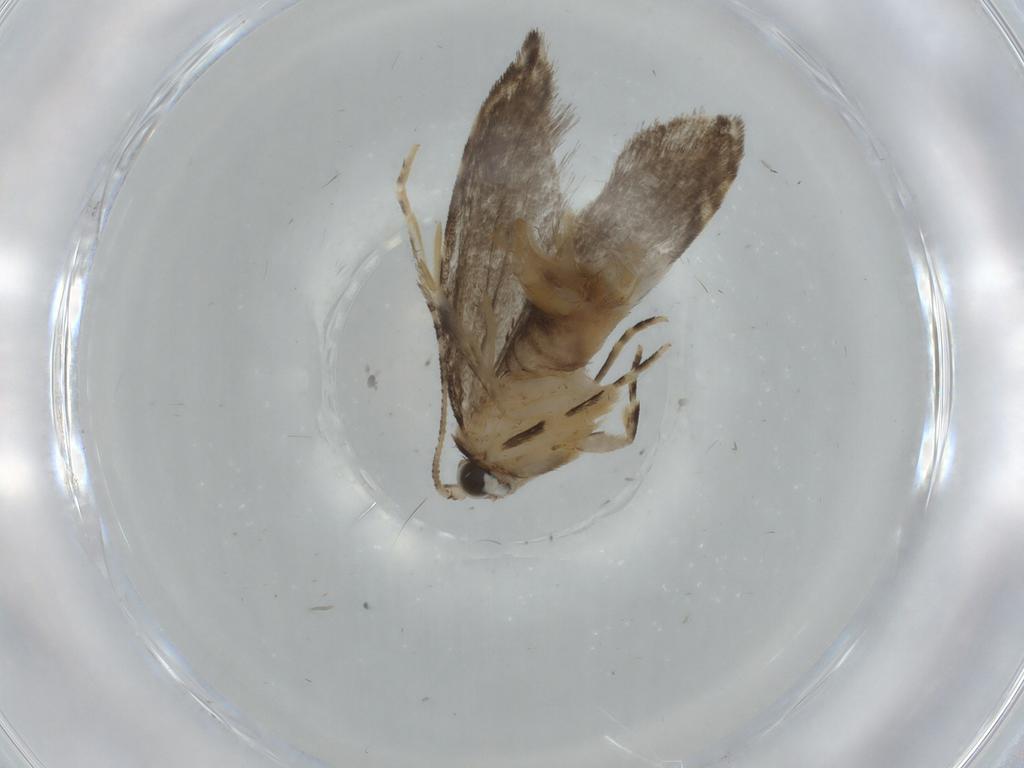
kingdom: Animalia
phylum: Arthropoda
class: Insecta
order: Lepidoptera
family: Tineidae
